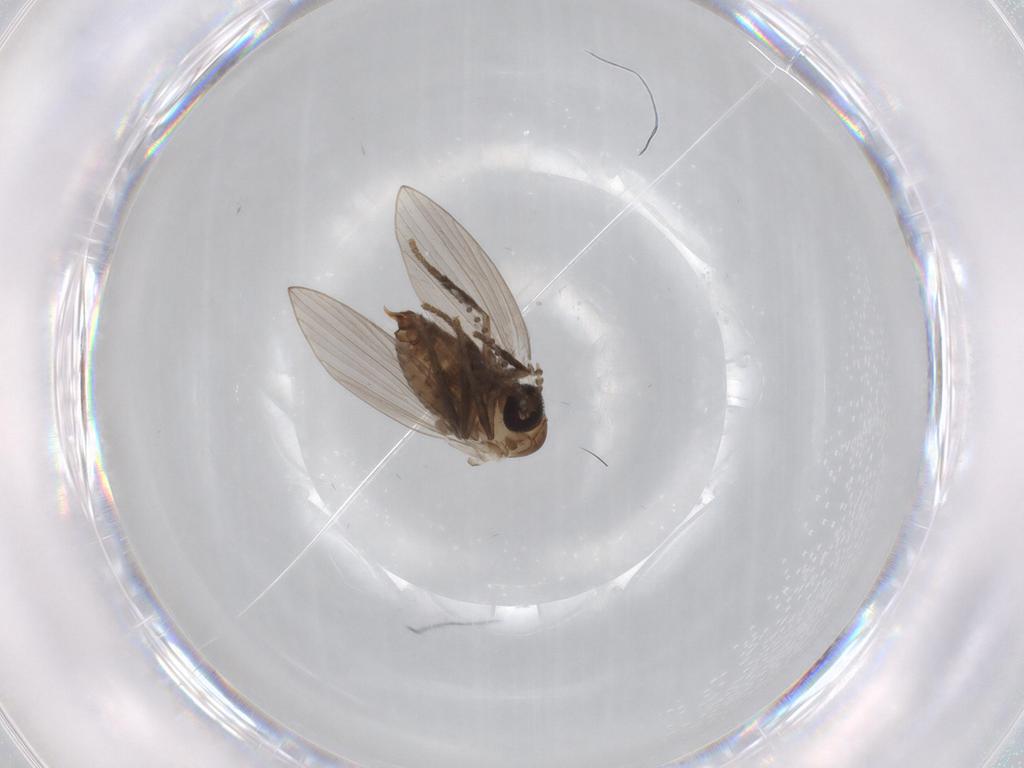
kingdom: Animalia
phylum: Arthropoda
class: Insecta
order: Diptera
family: Psychodidae
